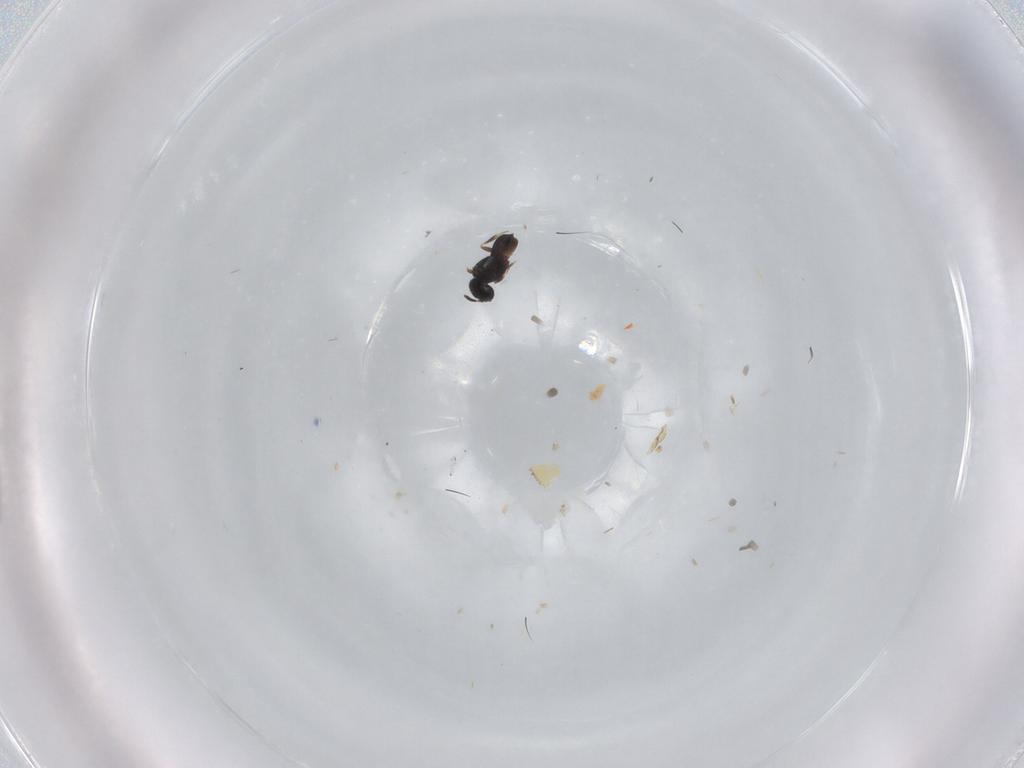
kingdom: Animalia
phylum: Arthropoda
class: Insecta
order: Hymenoptera
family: Scelionidae
